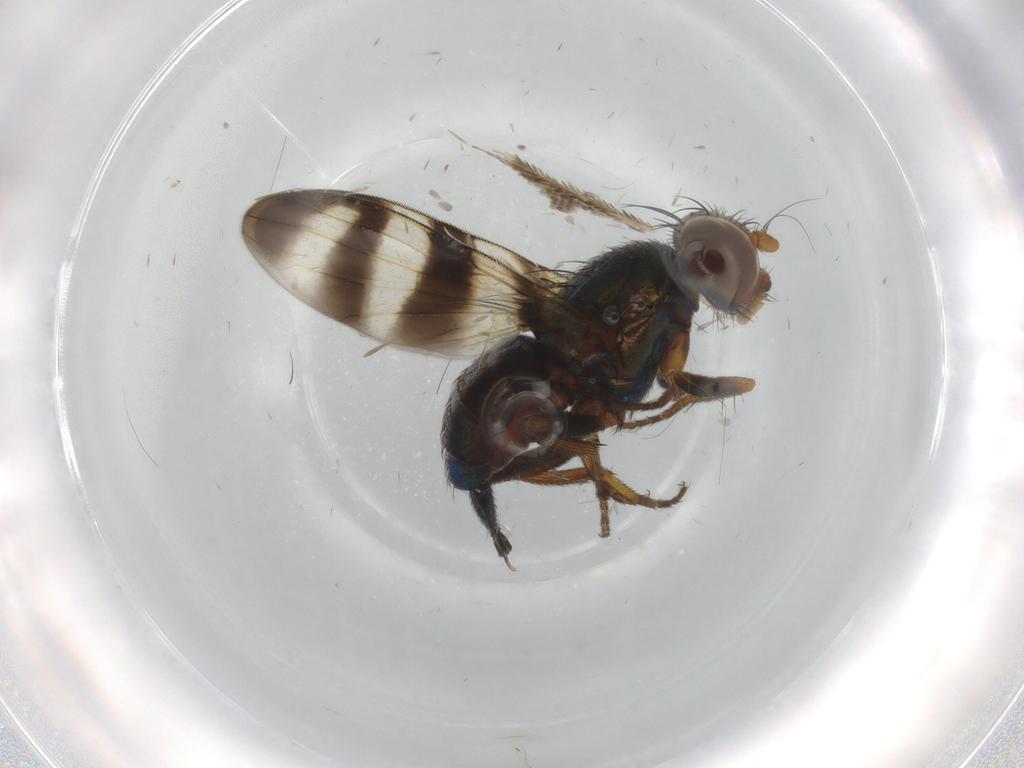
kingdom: Animalia
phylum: Arthropoda
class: Insecta
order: Diptera
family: Ulidiidae
